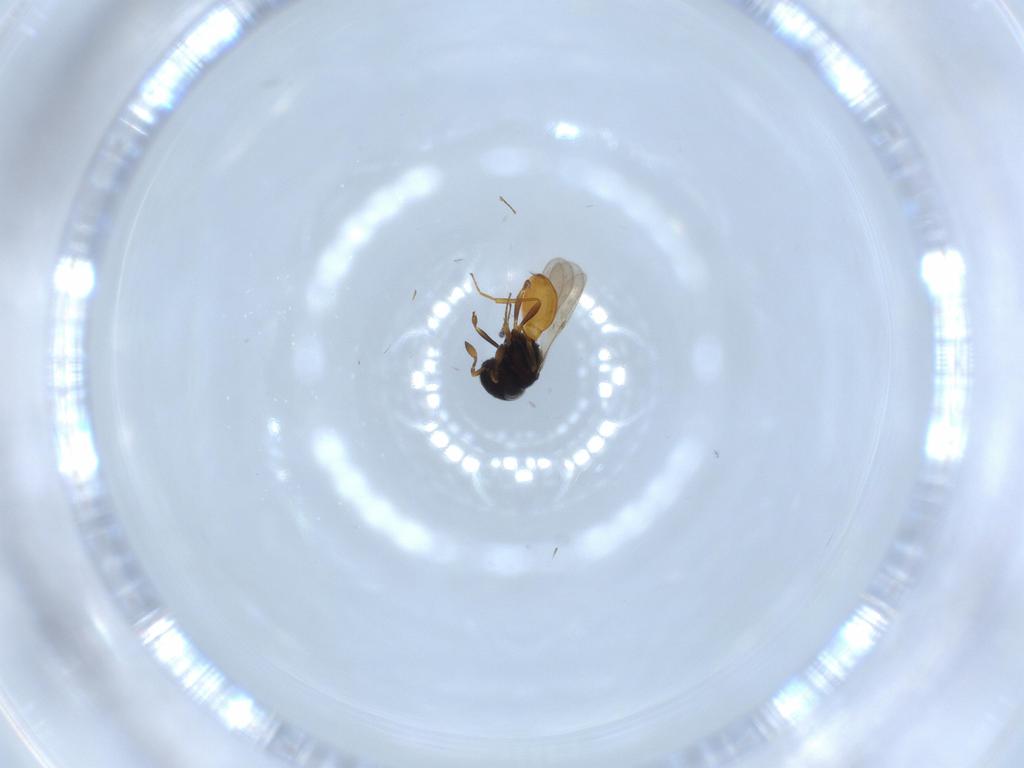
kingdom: Animalia
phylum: Arthropoda
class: Insecta
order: Hymenoptera
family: Scelionidae
